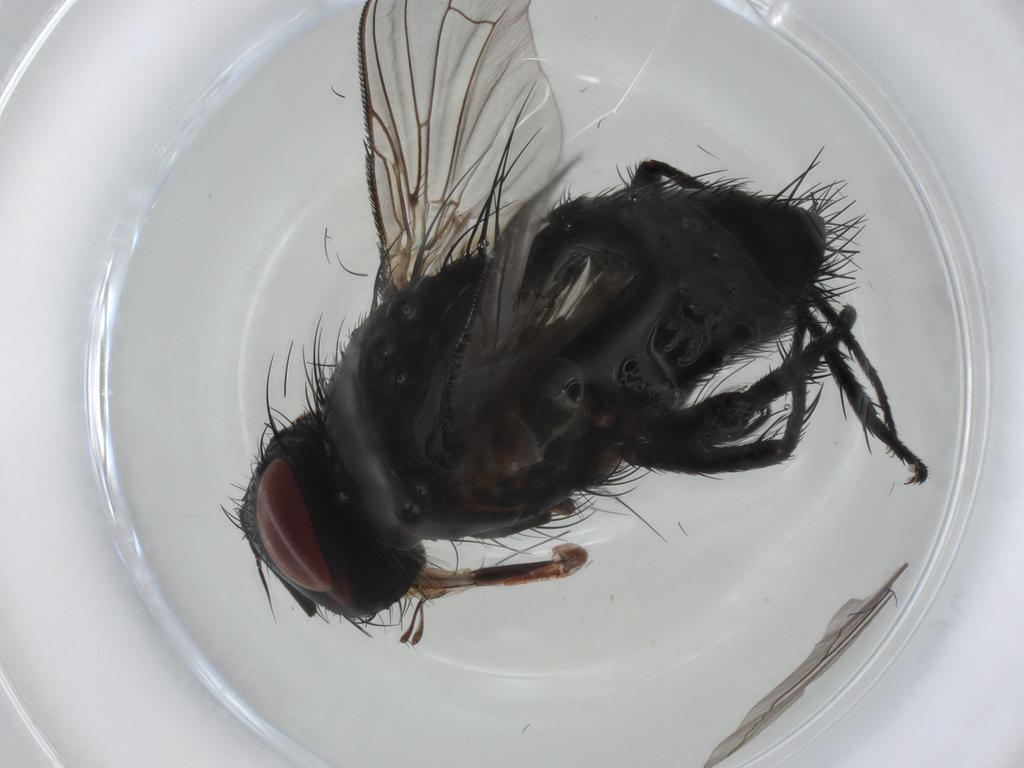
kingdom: Animalia
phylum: Arthropoda
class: Insecta
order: Diptera
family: Tachinidae
